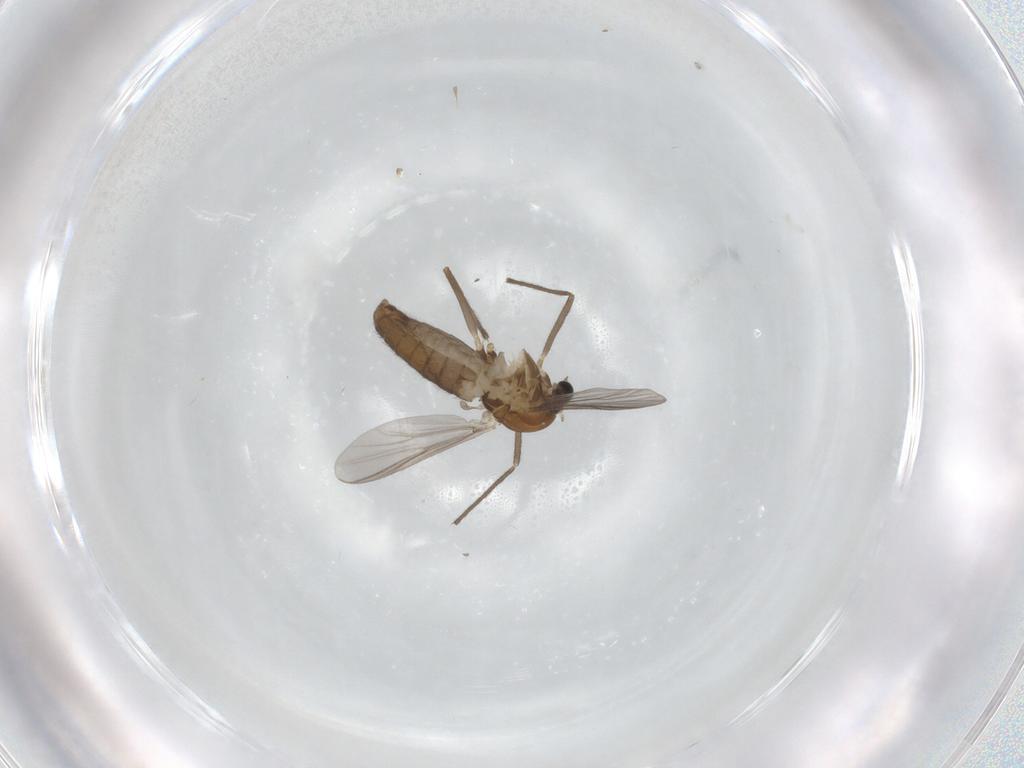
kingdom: Animalia
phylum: Arthropoda
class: Insecta
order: Diptera
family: Chironomidae
